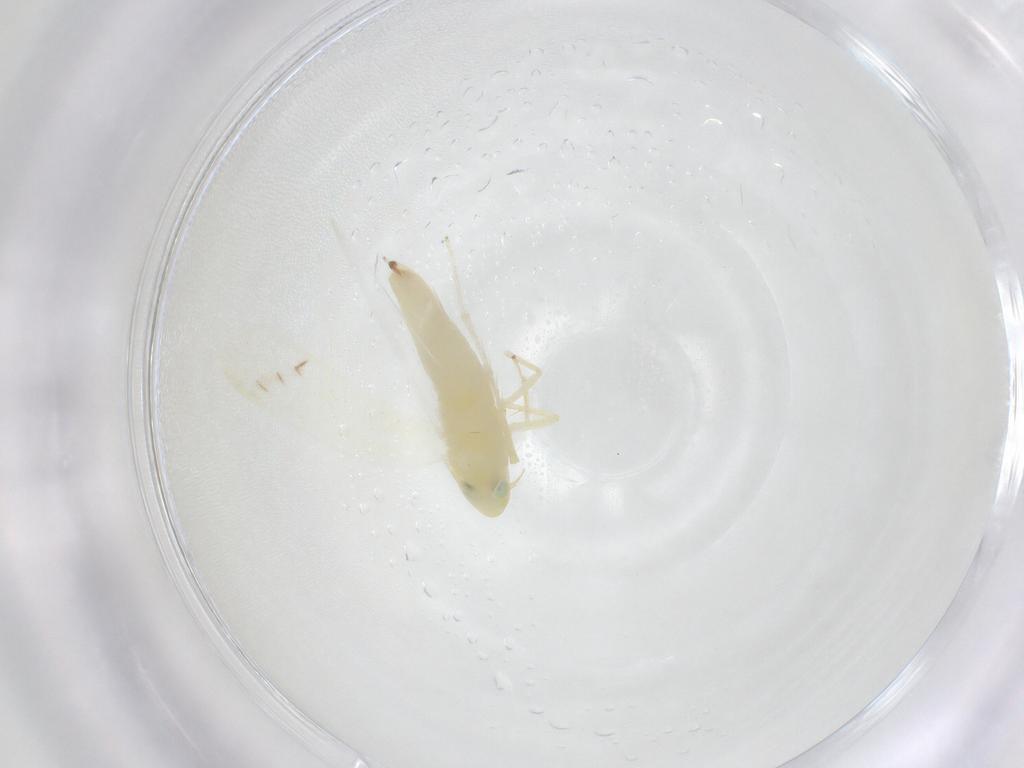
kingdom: Animalia
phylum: Arthropoda
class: Insecta
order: Hemiptera
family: Cicadellidae
